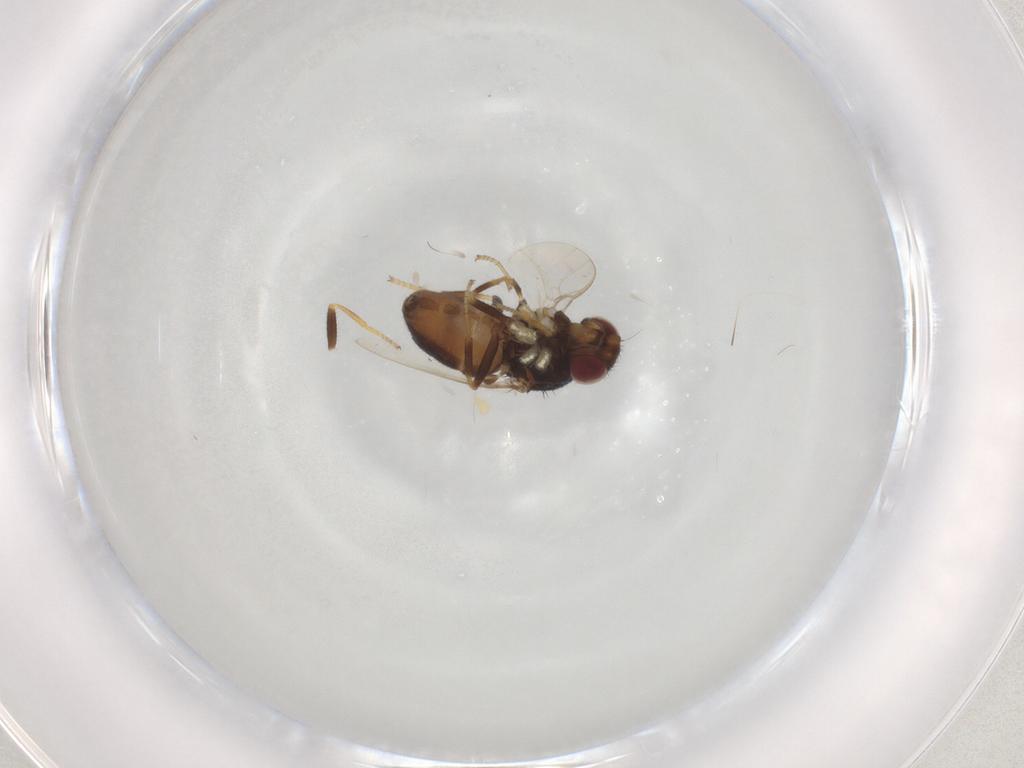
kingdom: Animalia
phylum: Arthropoda
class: Insecta
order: Diptera
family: Chloropidae
